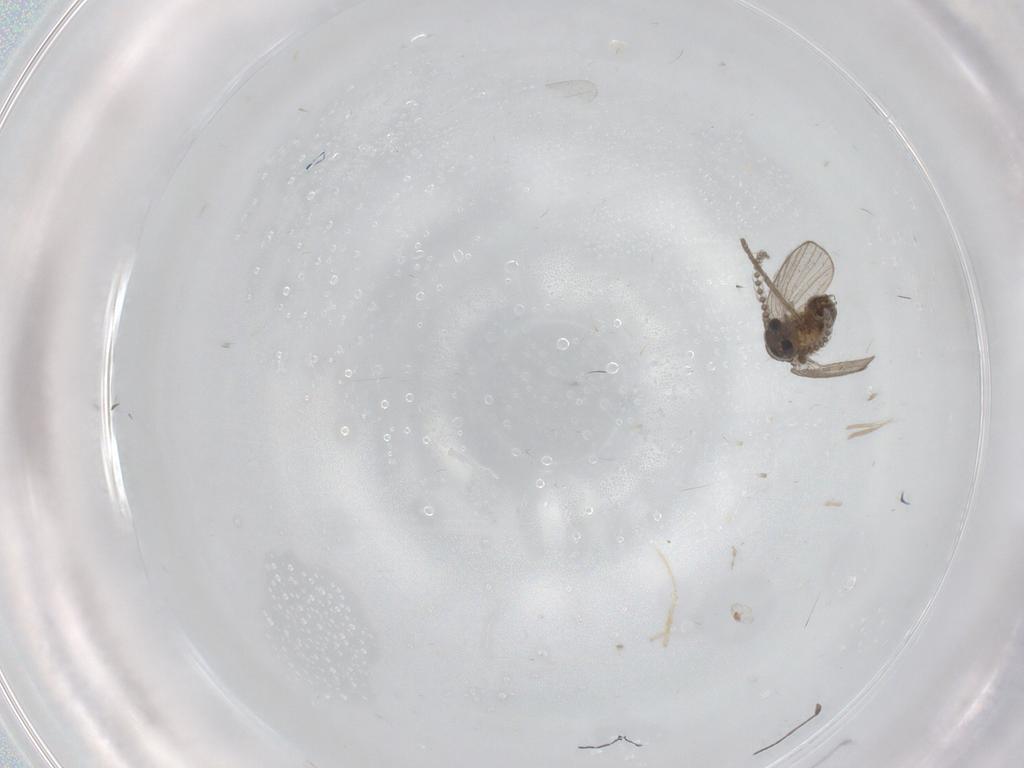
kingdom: Animalia
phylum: Arthropoda
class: Insecta
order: Diptera
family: Psychodidae
